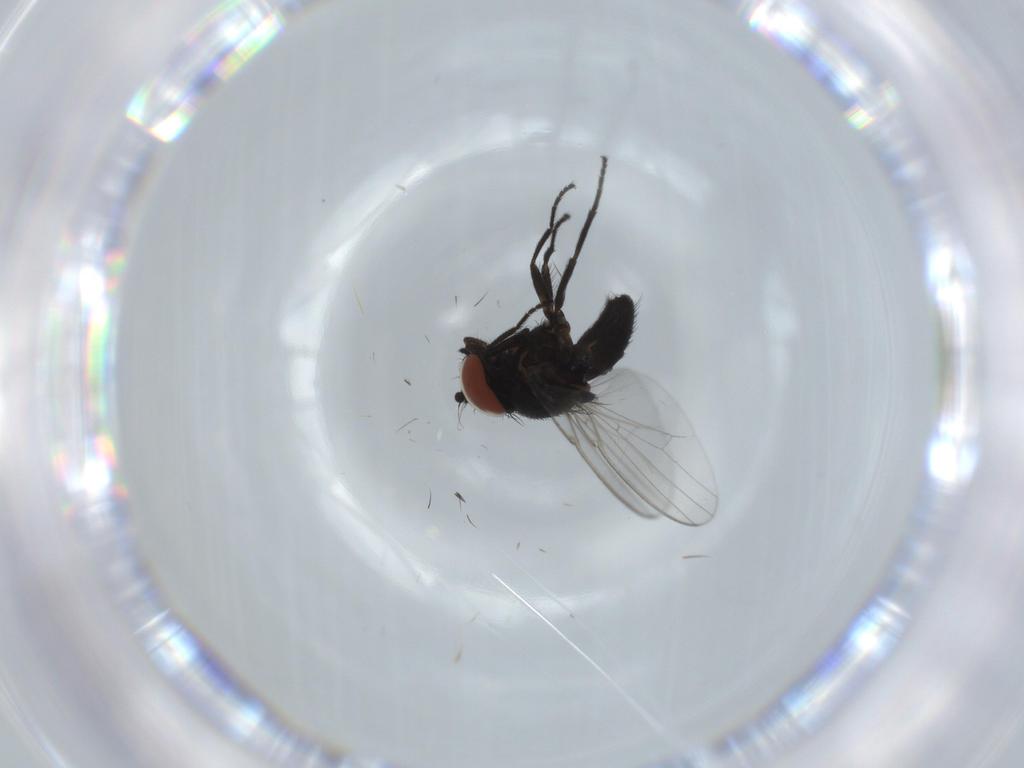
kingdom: Animalia
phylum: Arthropoda
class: Insecta
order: Diptera
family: Milichiidae
